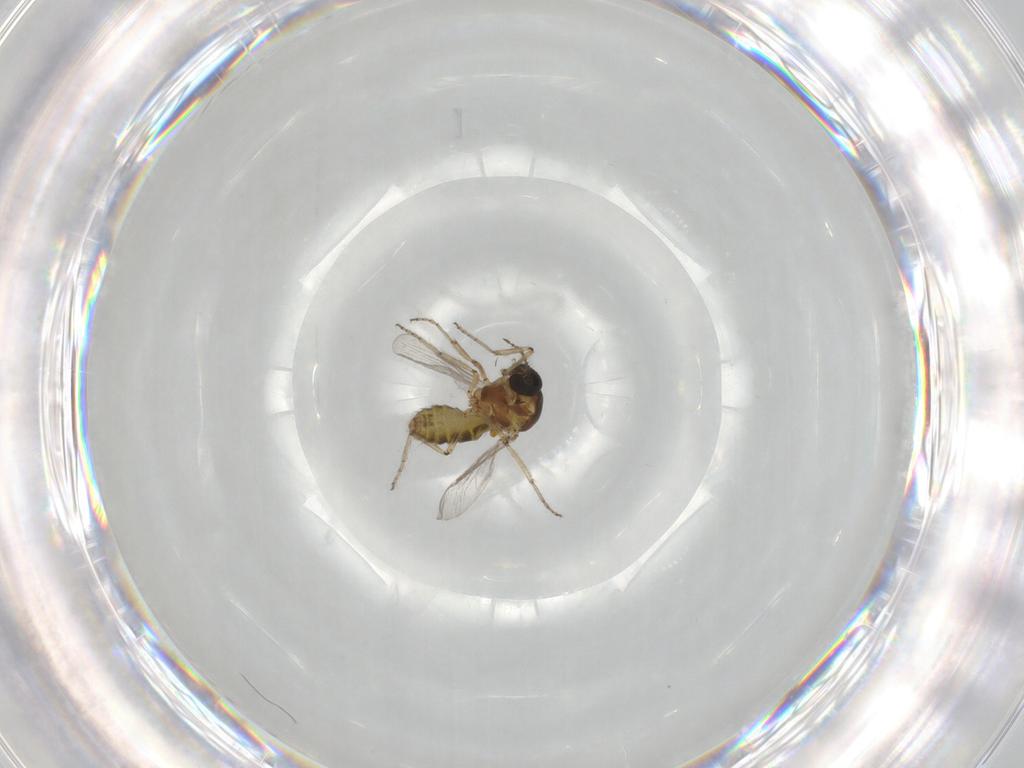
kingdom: Animalia
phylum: Arthropoda
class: Insecta
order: Diptera
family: Ceratopogonidae
